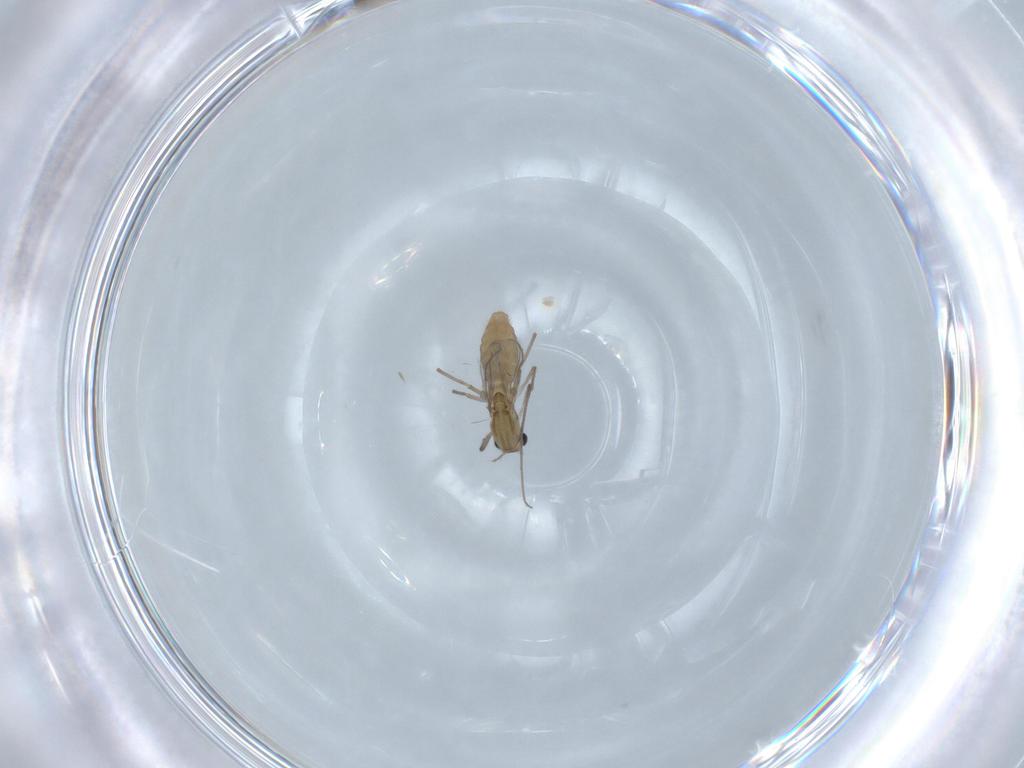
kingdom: Animalia
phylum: Arthropoda
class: Insecta
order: Diptera
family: Chironomidae
